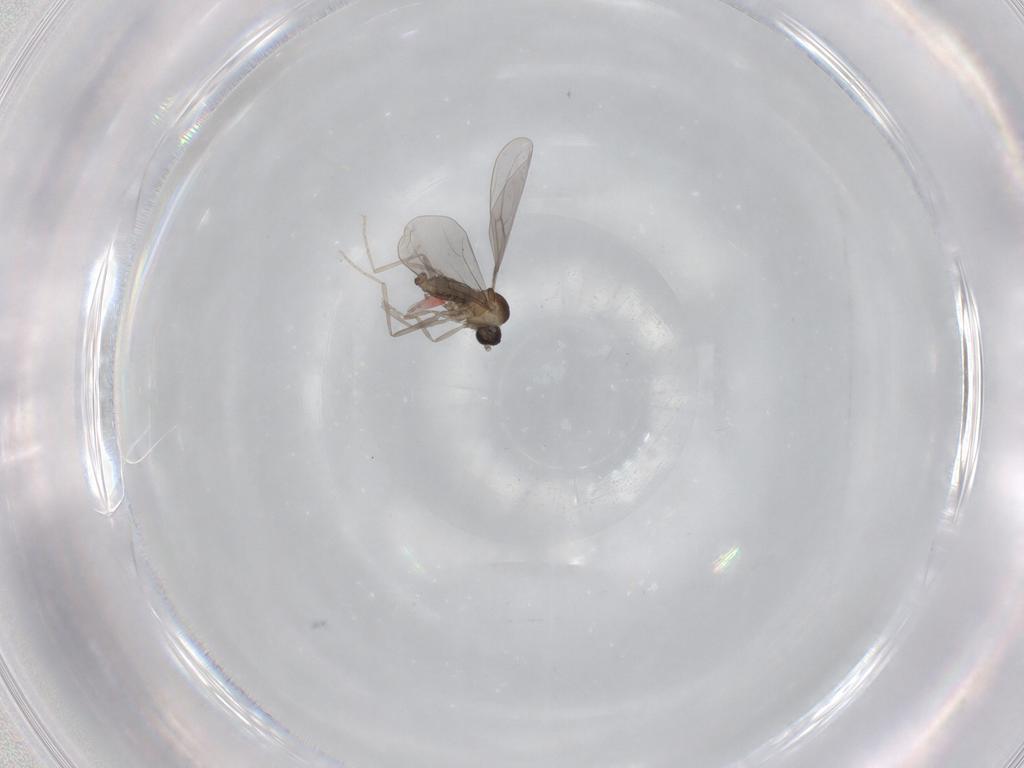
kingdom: Animalia
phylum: Arthropoda
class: Insecta
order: Diptera
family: Cecidomyiidae
